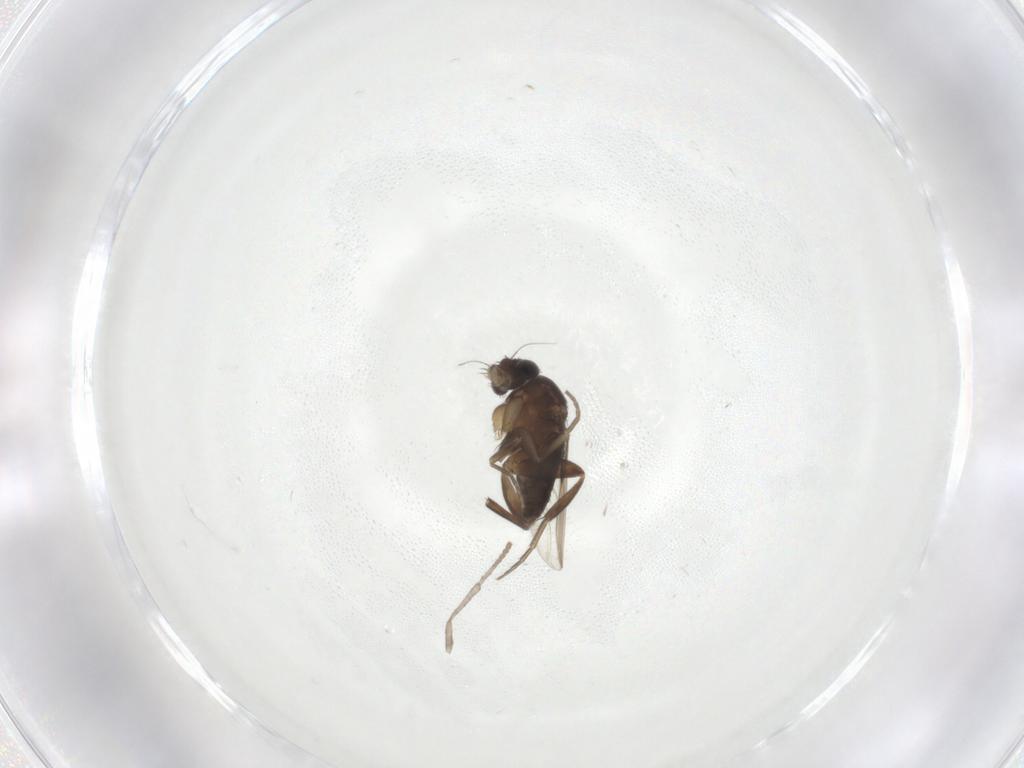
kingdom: Animalia
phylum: Arthropoda
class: Insecta
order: Diptera
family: Phoridae
